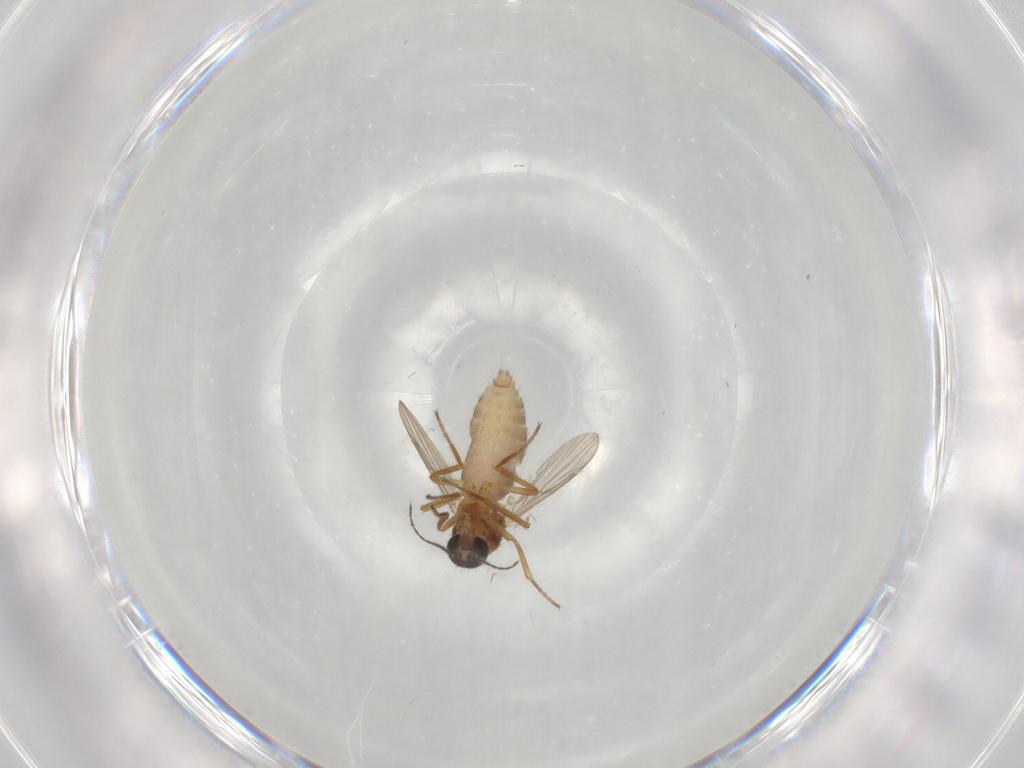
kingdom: Animalia
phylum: Arthropoda
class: Insecta
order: Diptera
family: Ceratopogonidae
